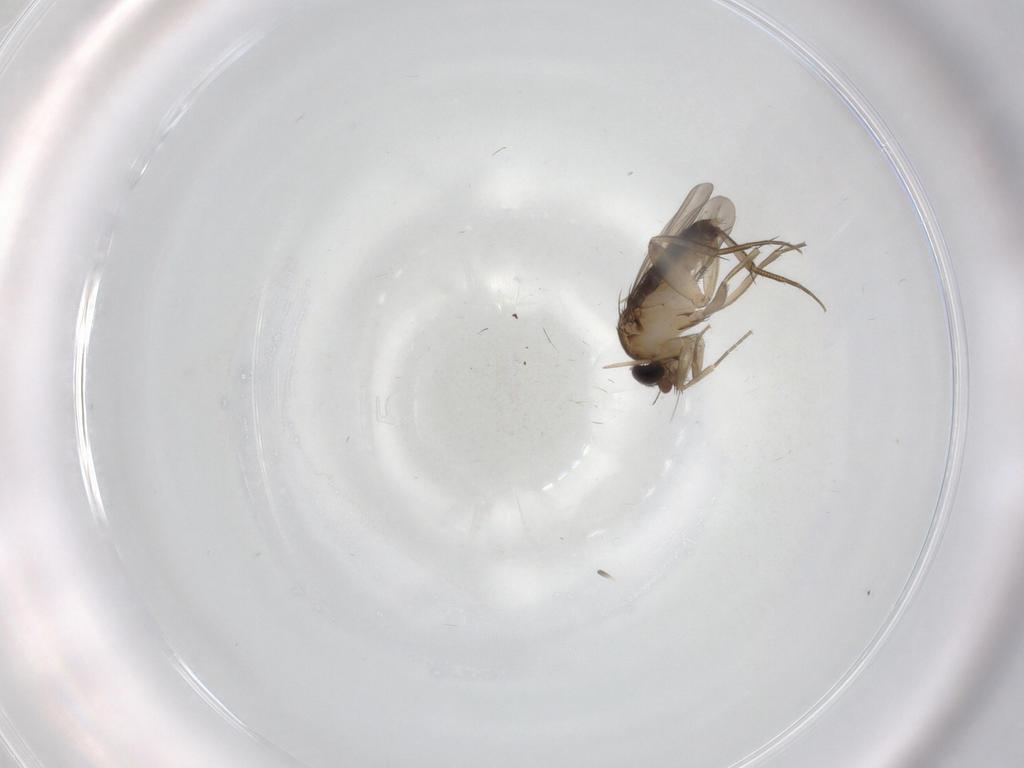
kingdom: Animalia
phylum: Arthropoda
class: Insecta
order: Diptera
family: Phoridae
